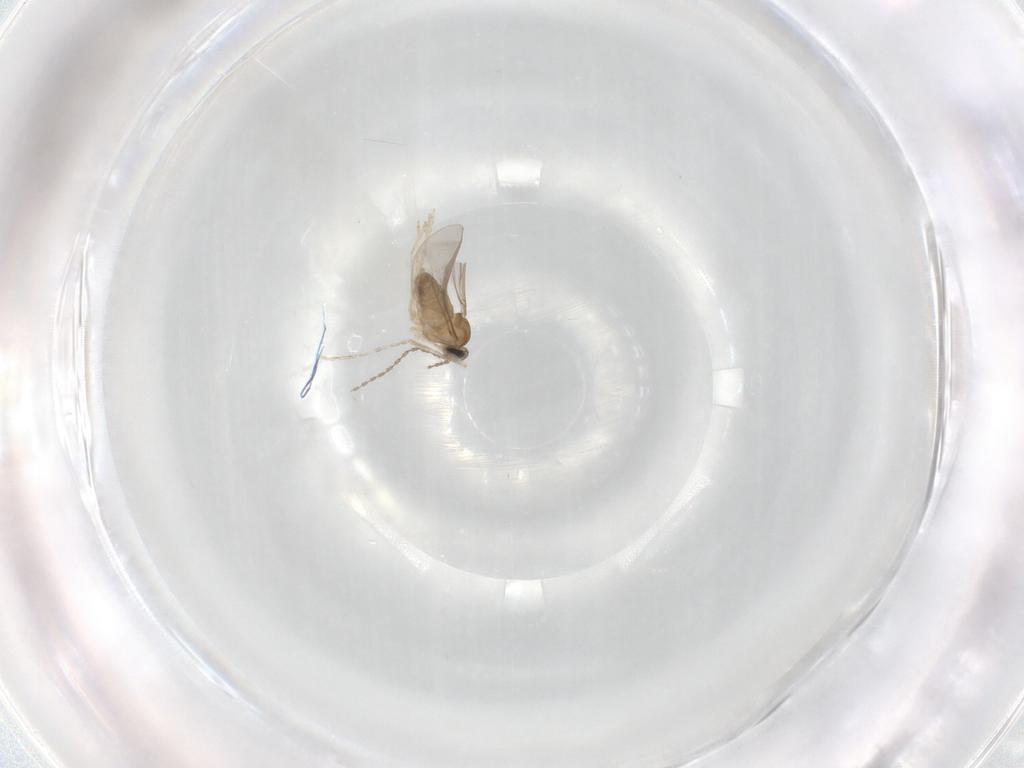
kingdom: Animalia
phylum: Arthropoda
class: Insecta
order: Diptera
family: Cecidomyiidae
